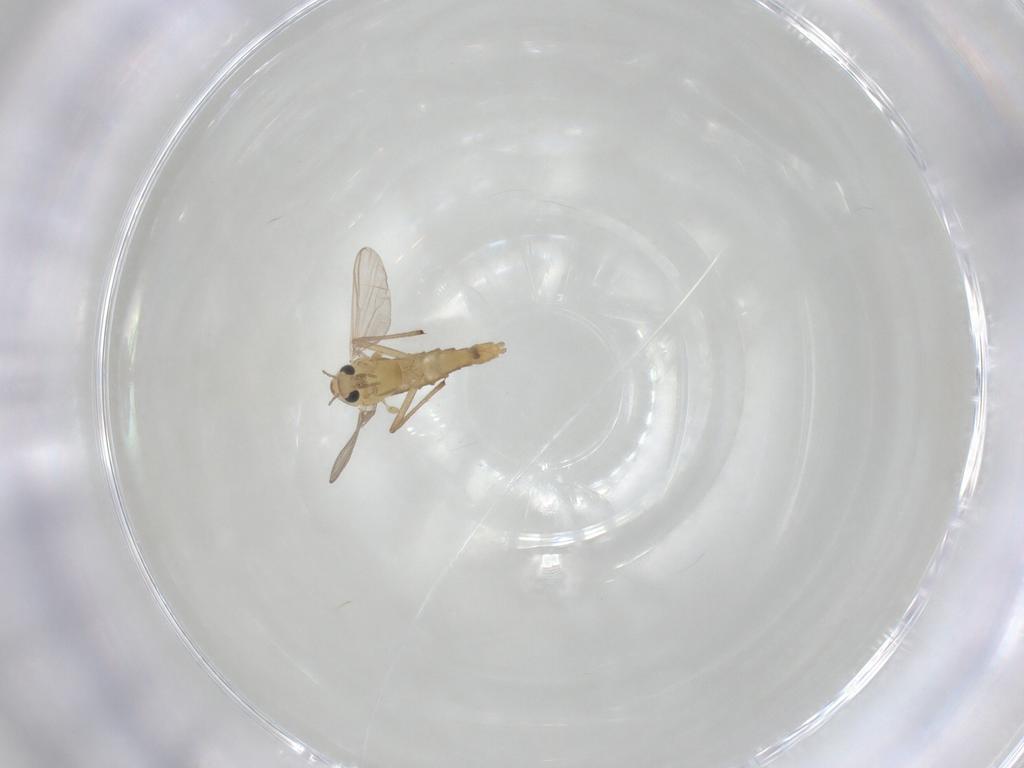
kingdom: Animalia
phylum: Arthropoda
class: Insecta
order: Diptera
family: Chironomidae
